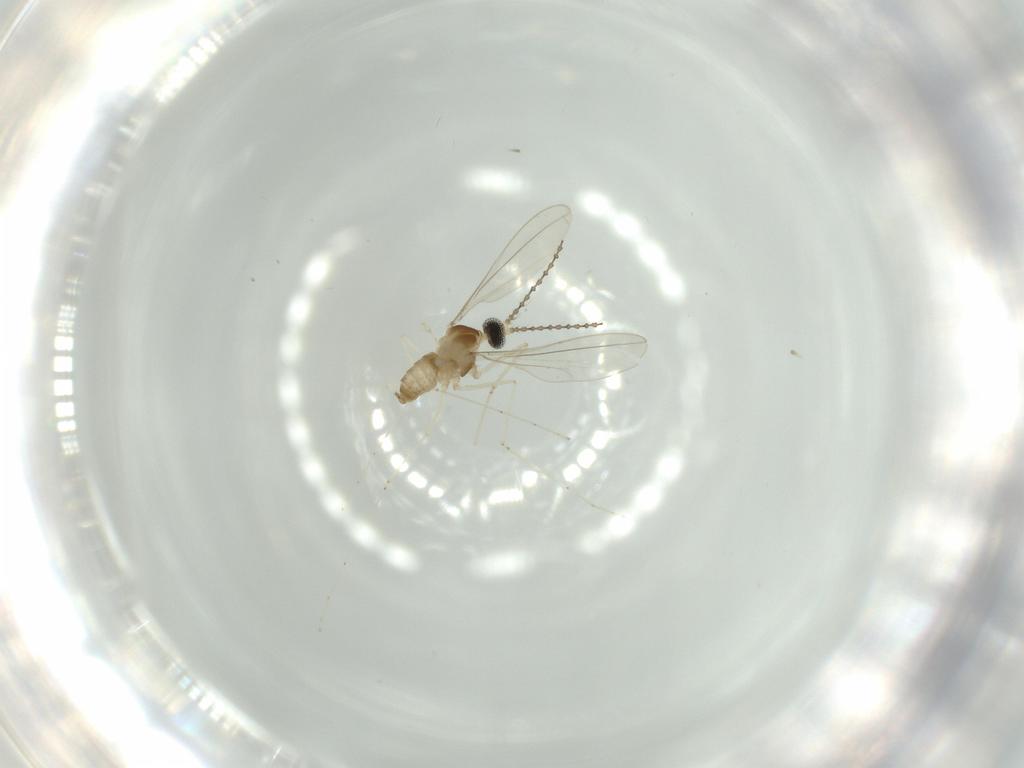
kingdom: Animalia
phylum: Arthropoda
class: Insecta
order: Diptera
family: Cecidomyiidae
